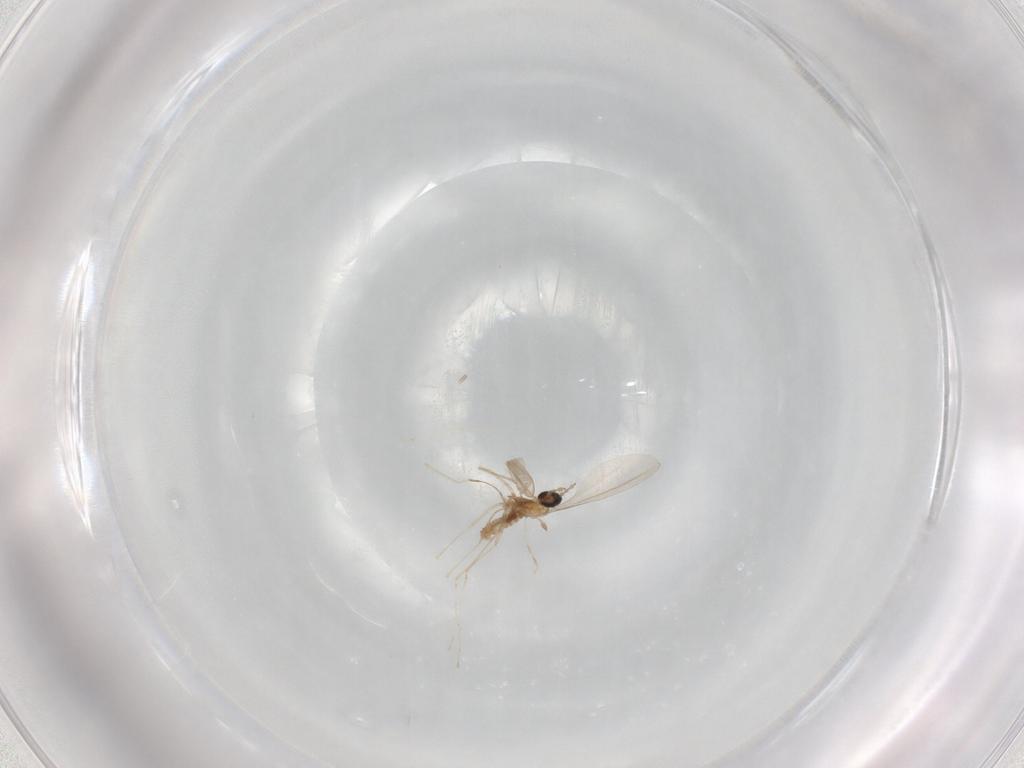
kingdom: Animalia
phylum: Arthropoda
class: Insecta
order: Diptera
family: Cecidomyiidae
